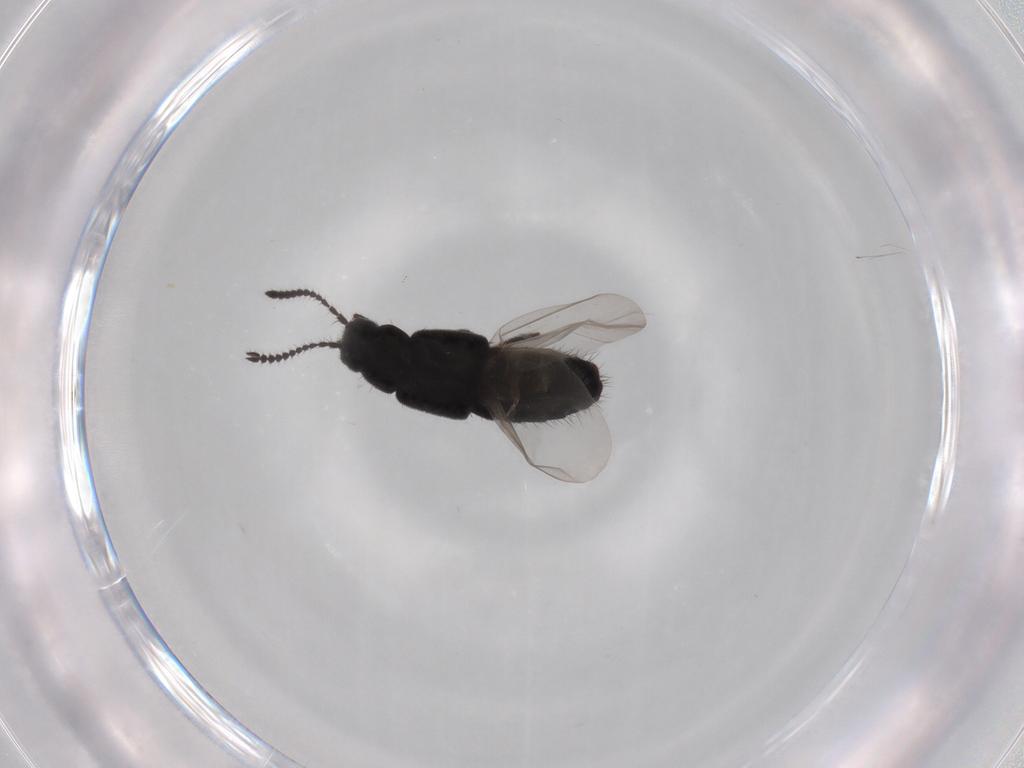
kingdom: Animalia
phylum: Arthropoda
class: Insecta
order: Coleoptera
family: Staphylinidae
